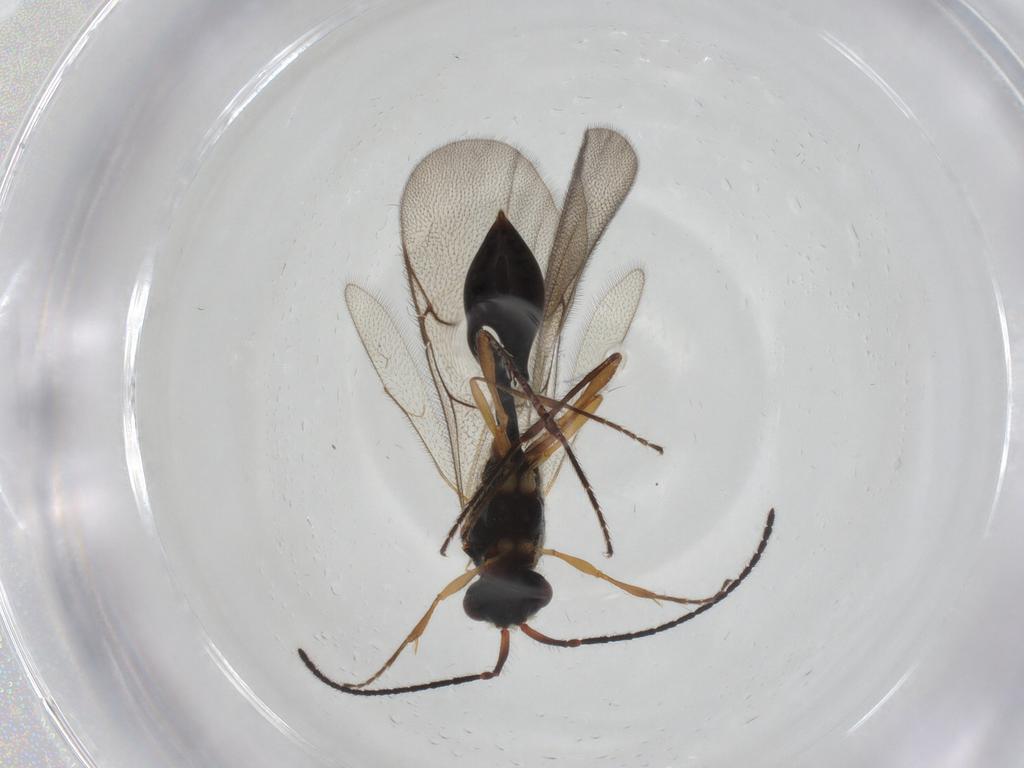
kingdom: Animalia
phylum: Arthropoda
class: Insecta
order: Hymenoptera
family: Diapriidae
